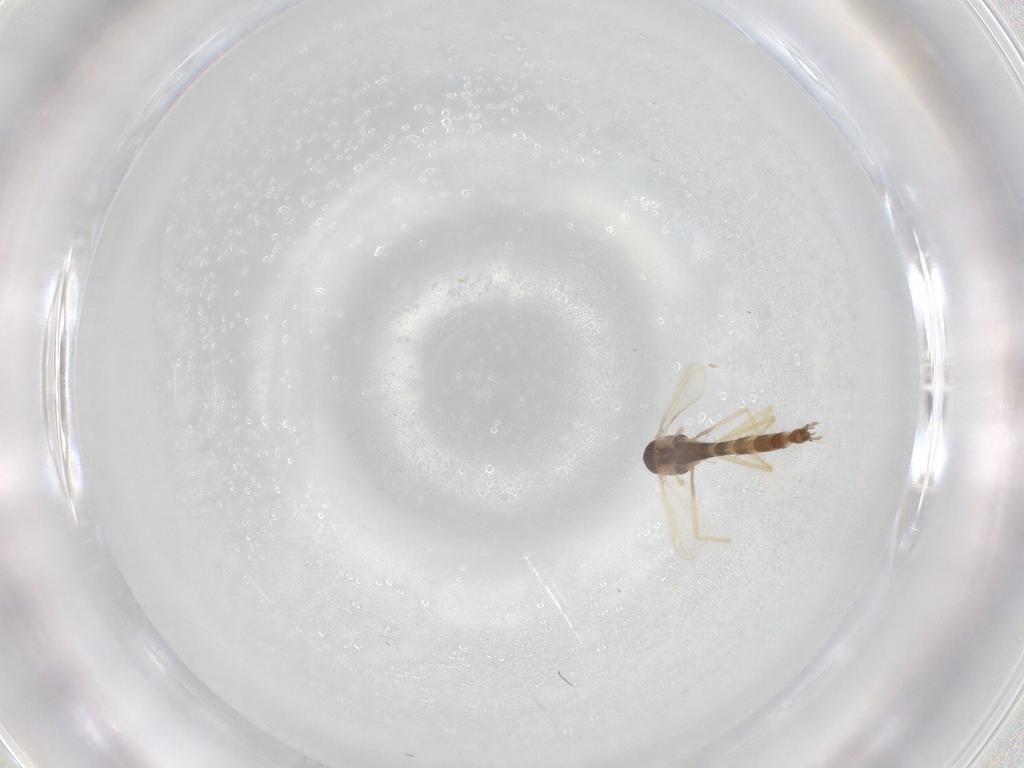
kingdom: Animalia
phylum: Arthropoda
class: Insecta
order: Diptera
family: Chironomidae
